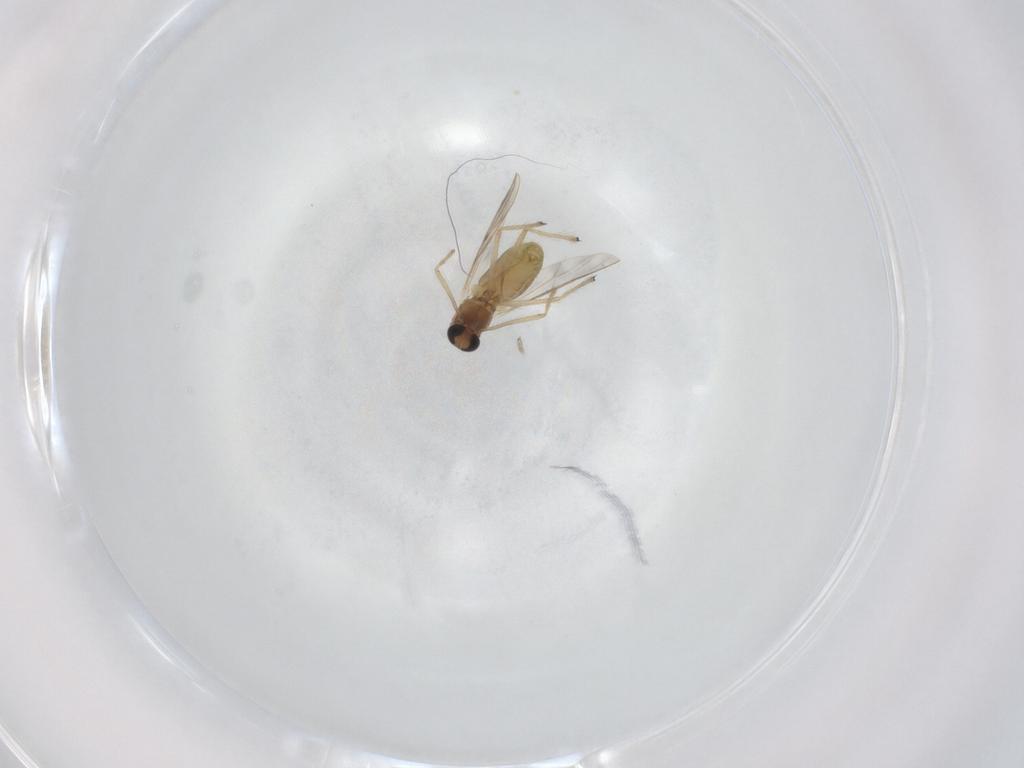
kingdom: Animalia
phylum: Arthropoda
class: Insecta
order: Diptera
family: Chironomidae
